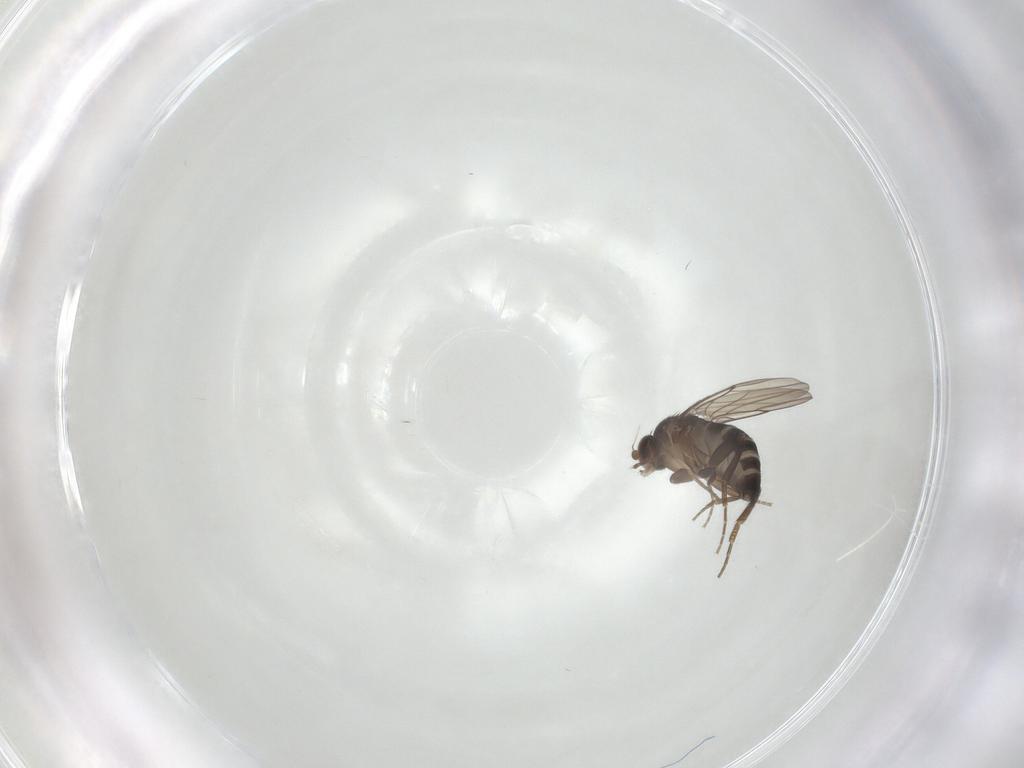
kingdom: Animalia
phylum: Arthropoda
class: Insecta
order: Diptera
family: Phoridae
